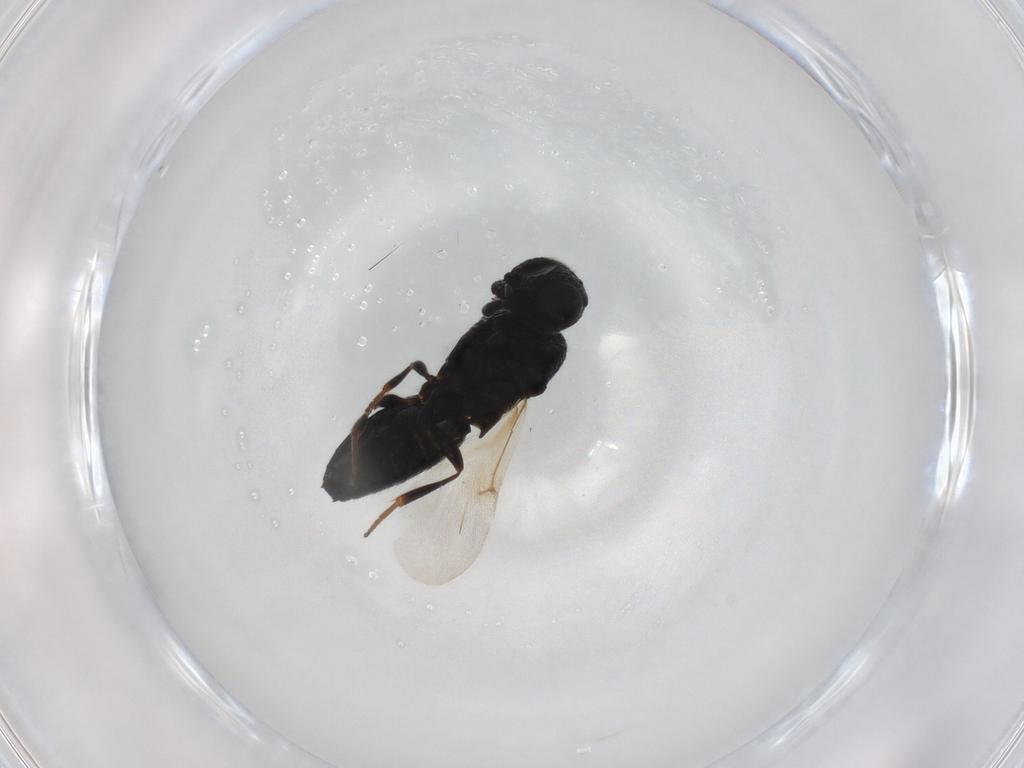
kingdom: Animalia
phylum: Arthropoda
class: Insecta
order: Hymenoptera
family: Formicidae
